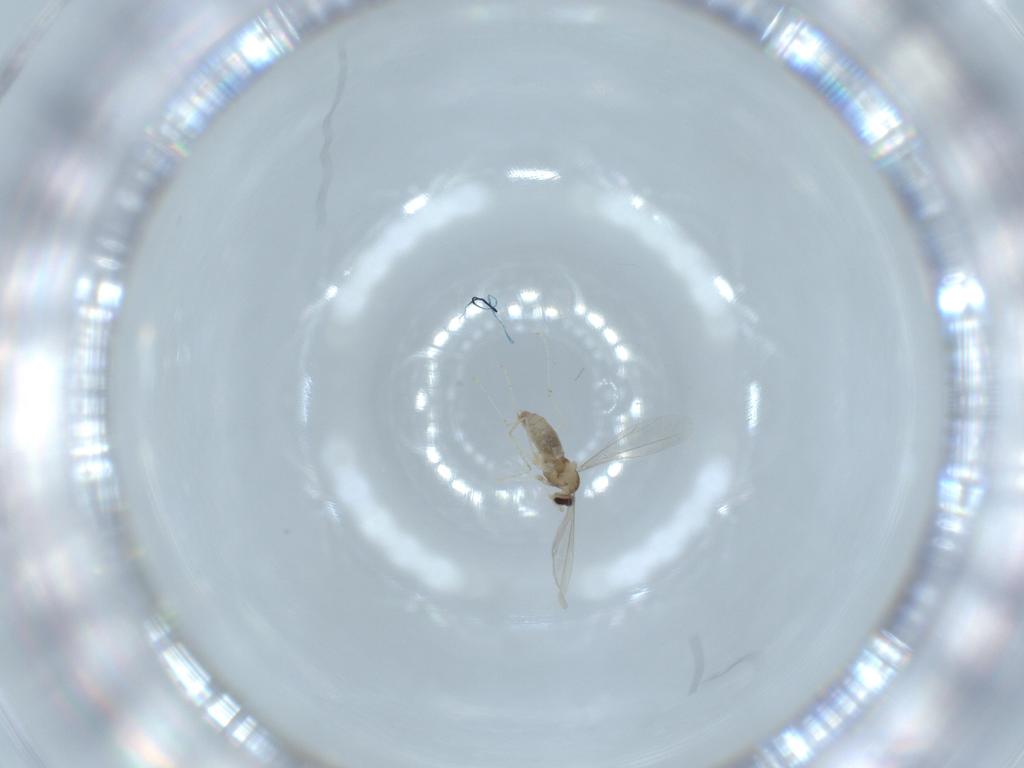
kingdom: Animalia
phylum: Arthropoda
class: Insecta
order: Diptera
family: Cecidomyiidae
